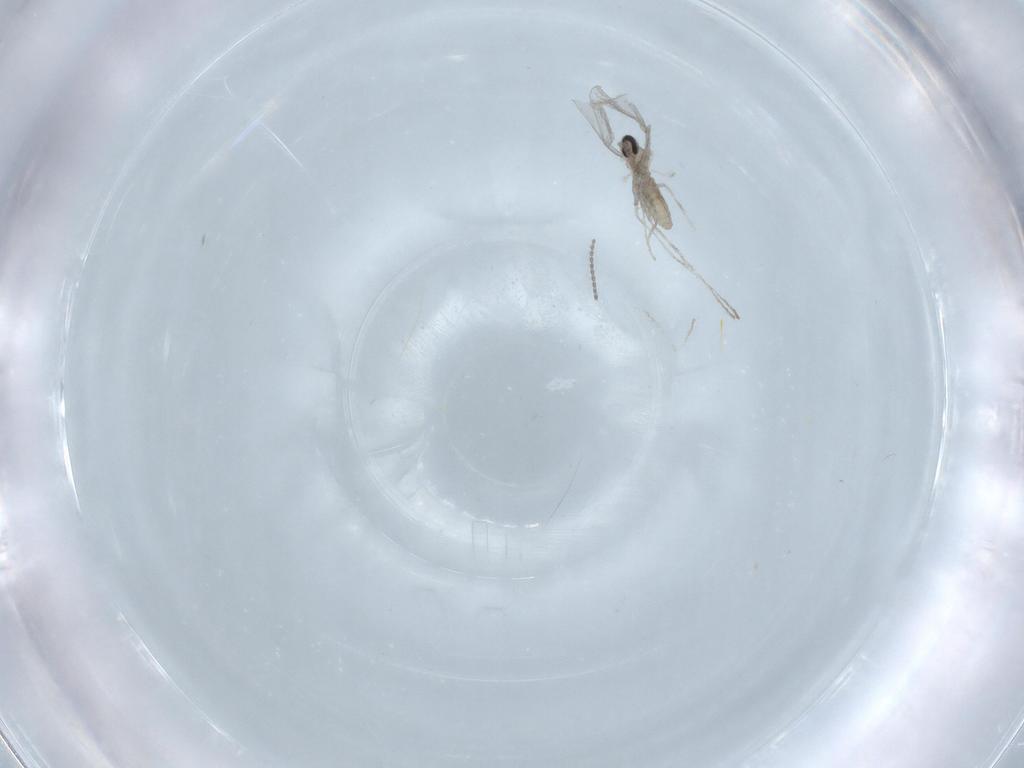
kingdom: Animalia
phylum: Arthropoda
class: Insecta
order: Diptera
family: Cecidomyiidae
